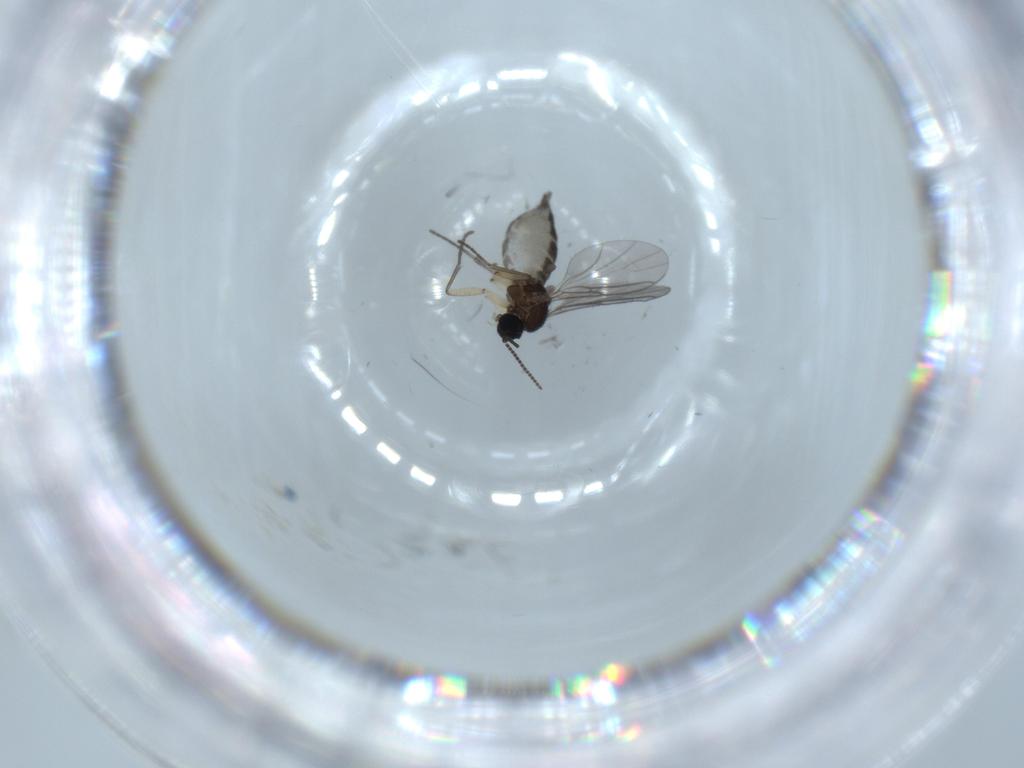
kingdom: Animalia
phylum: Arthropoda
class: Insecta
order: Diptera
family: Sciaridae
